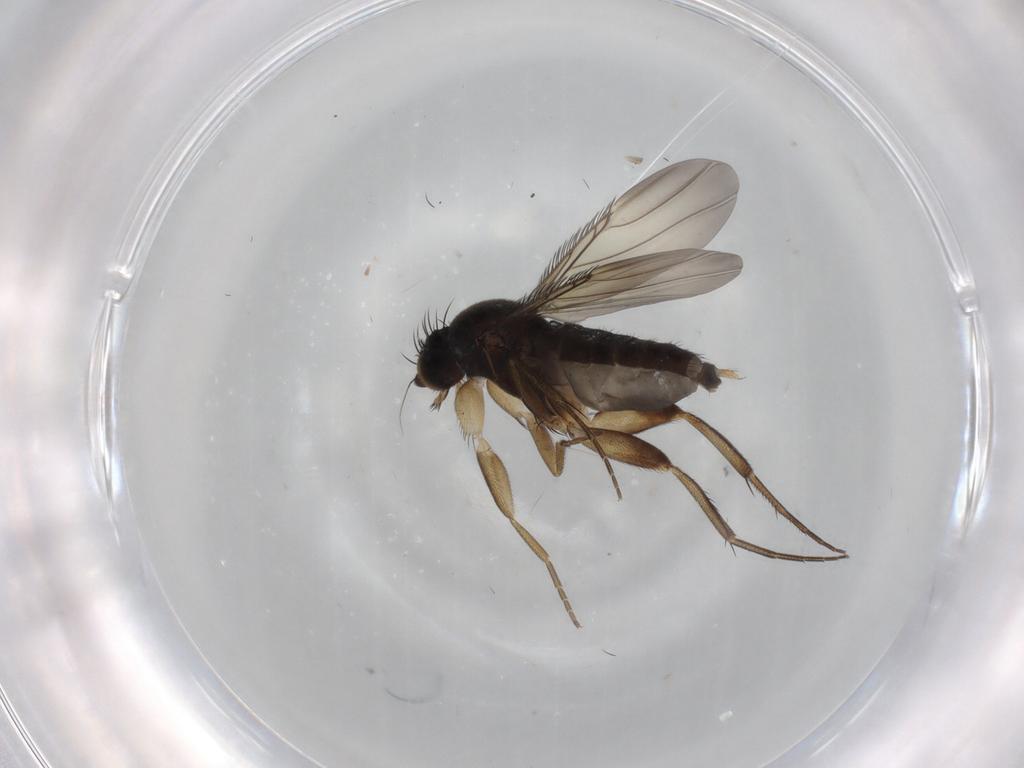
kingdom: Animalia
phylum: Arthropoda
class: Insecta
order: Diptera
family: Phoridae
